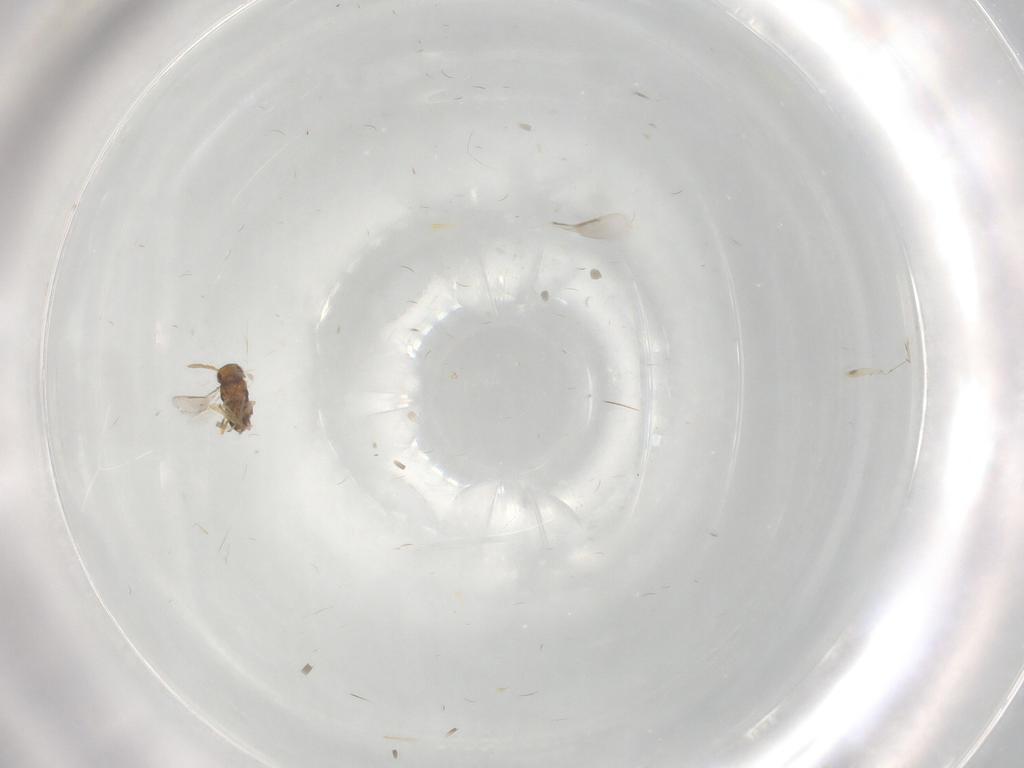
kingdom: Animalia
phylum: Arthropoda
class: Insecta
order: Hymenoptera
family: Aphelinidae
